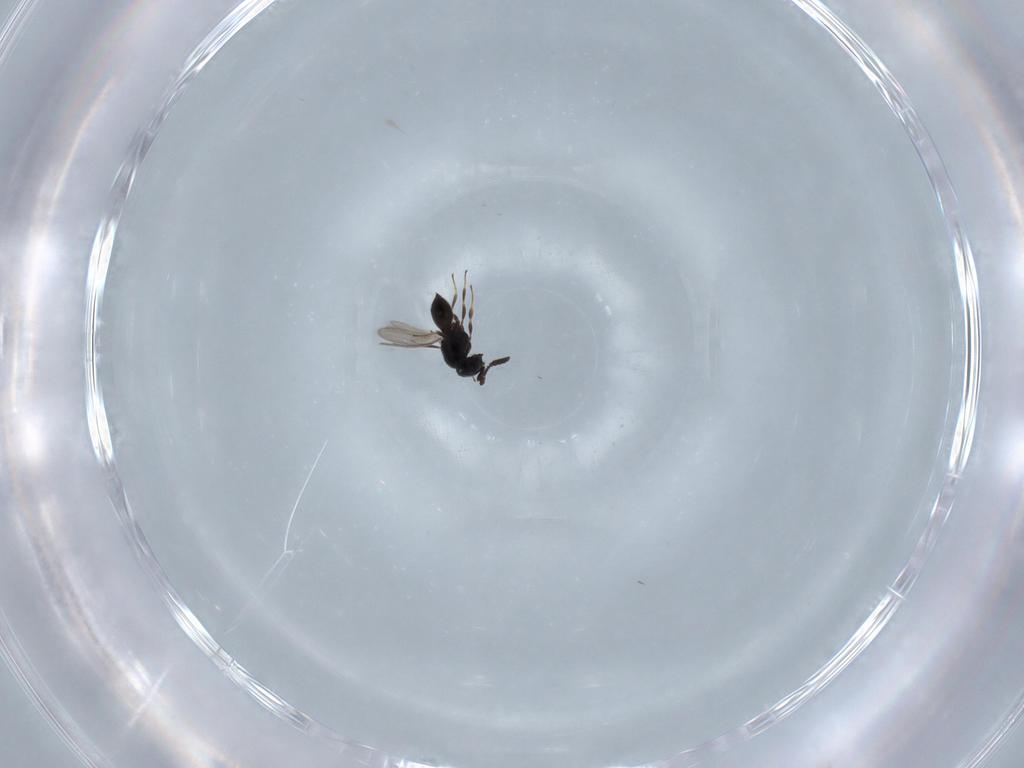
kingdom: Animalia
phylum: Arthropoda
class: Insecta
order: Hymenoptera
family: Scelionidae
